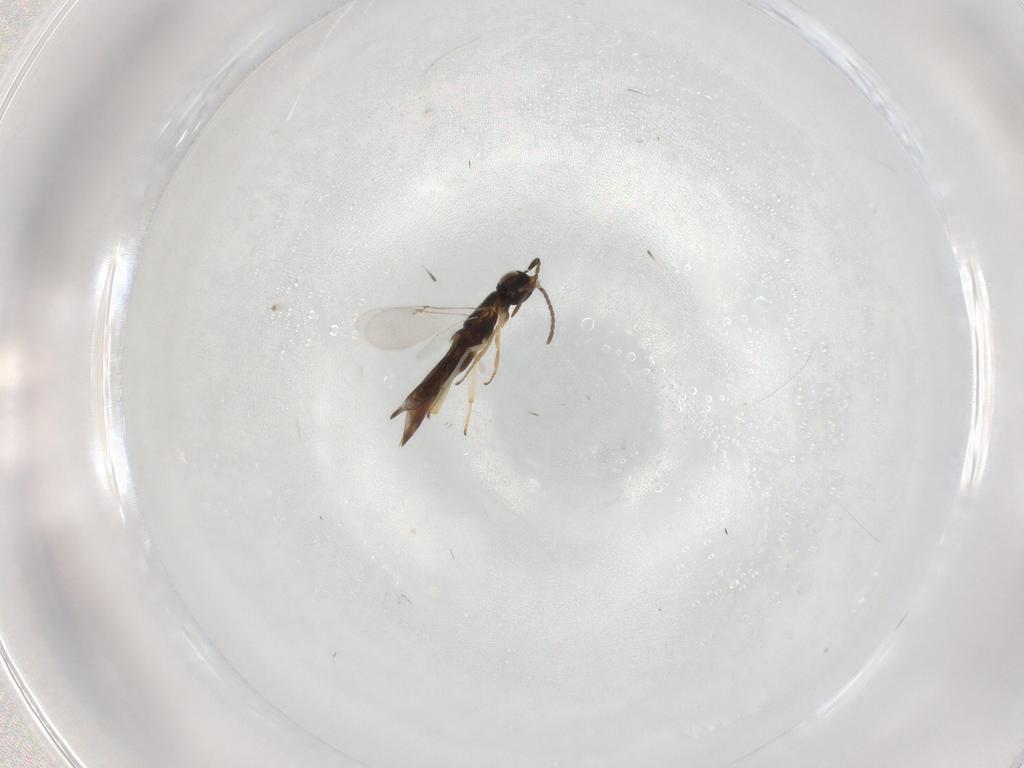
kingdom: Animalia
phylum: Arthropoda
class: Insecta
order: Hymenoptera
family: Encyrtidae
